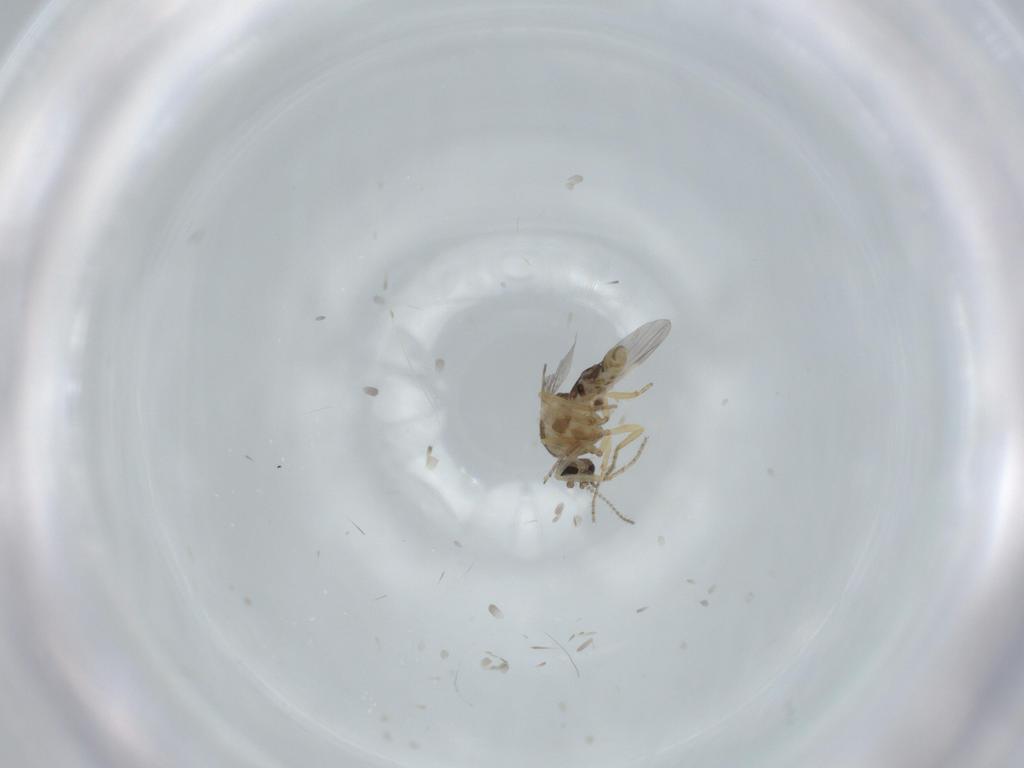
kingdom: Animalia
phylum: Arthropoda
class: Insecta
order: Diptera
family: Ceratopogonidae
